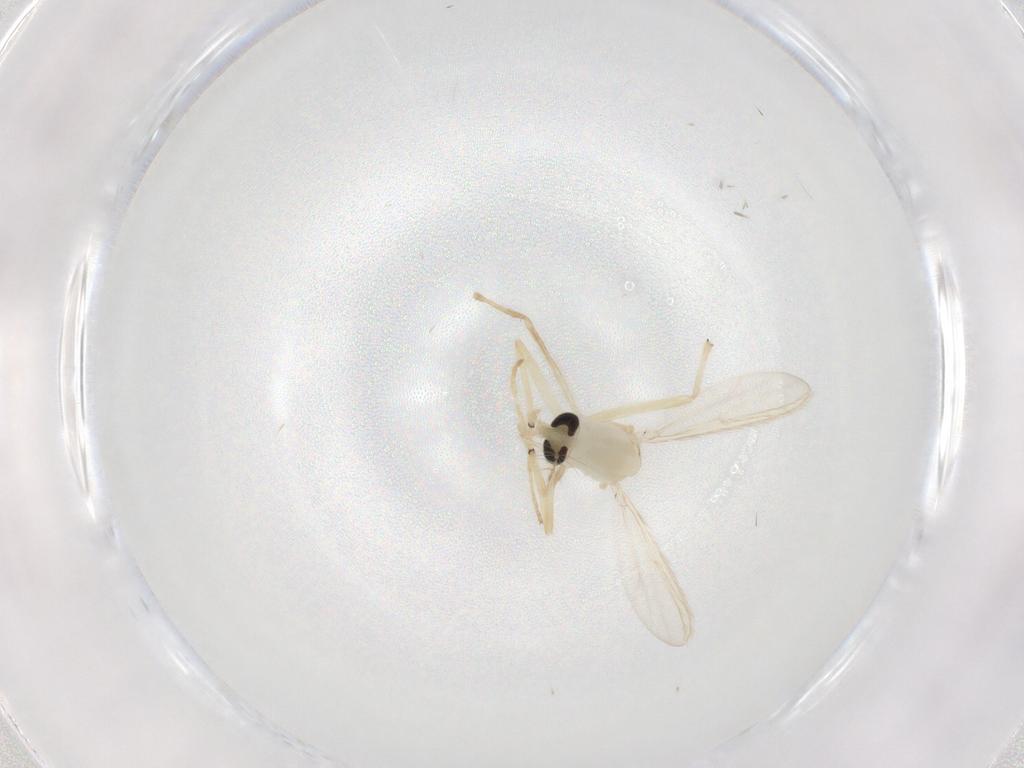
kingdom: Animalia
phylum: Arthropoda
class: Insecta
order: Diptera
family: Chironomidae
